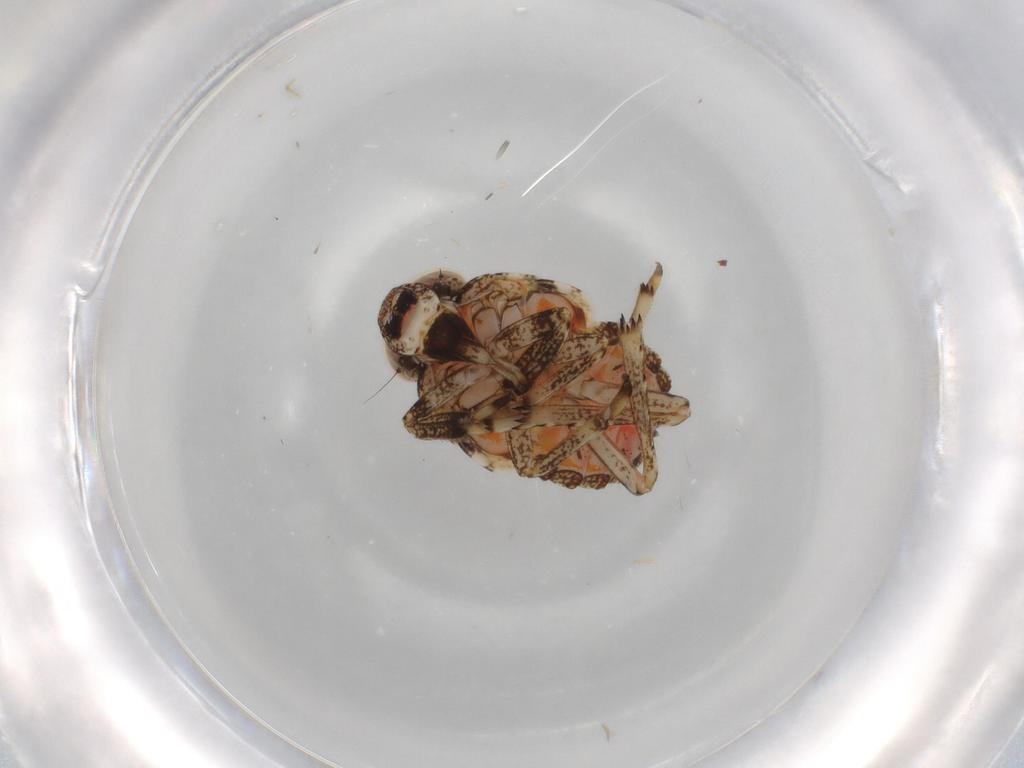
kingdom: Animalia
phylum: Arthropoda
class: Insecta
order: Hemiptera
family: Issidae
